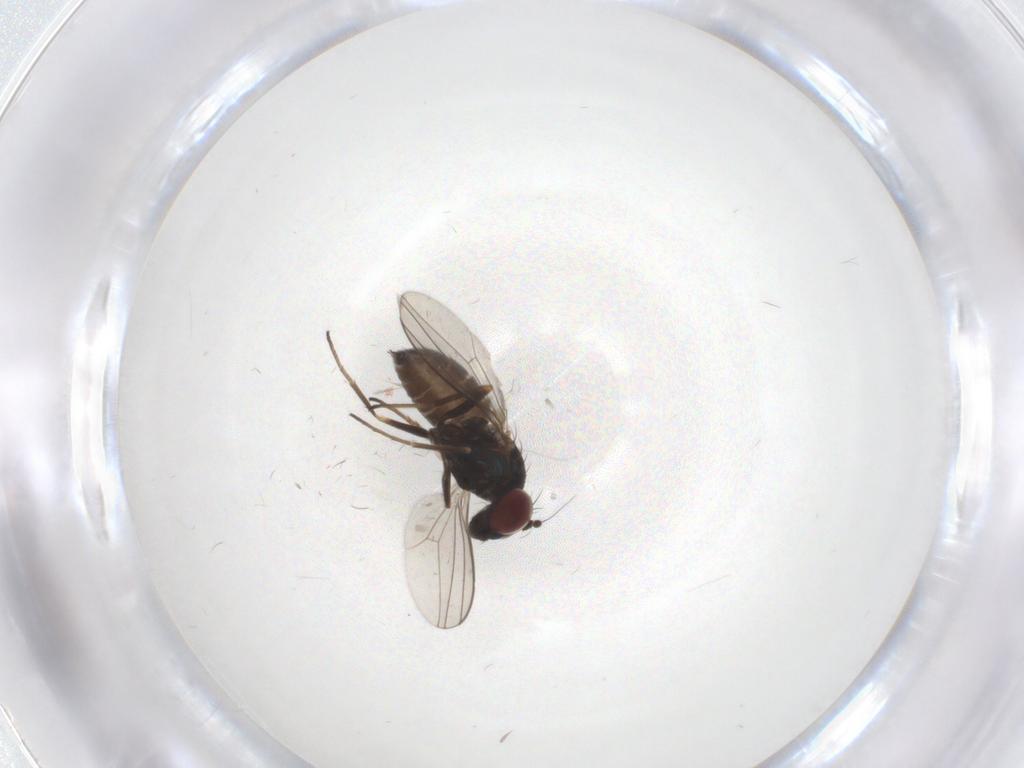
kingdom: Animalia
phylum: Arthropoda
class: Insecta
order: Diptera
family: Dolichopodidae
